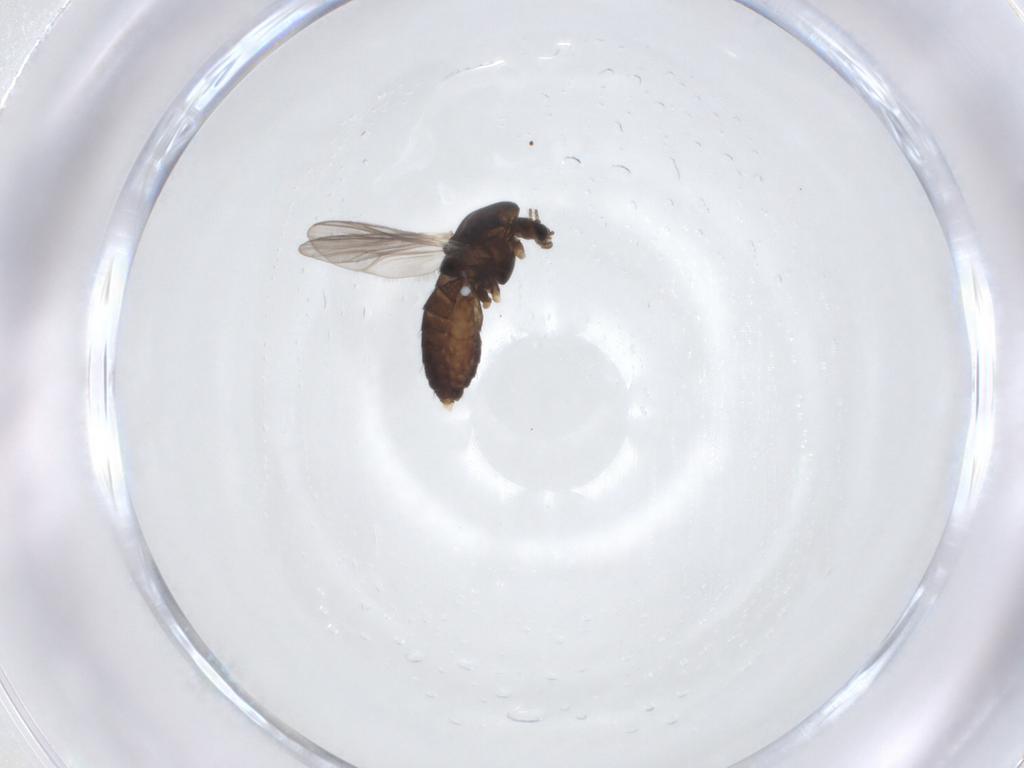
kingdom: Animalia
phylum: Arthropoda
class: Insecta
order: Diptera
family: Chironomidae
